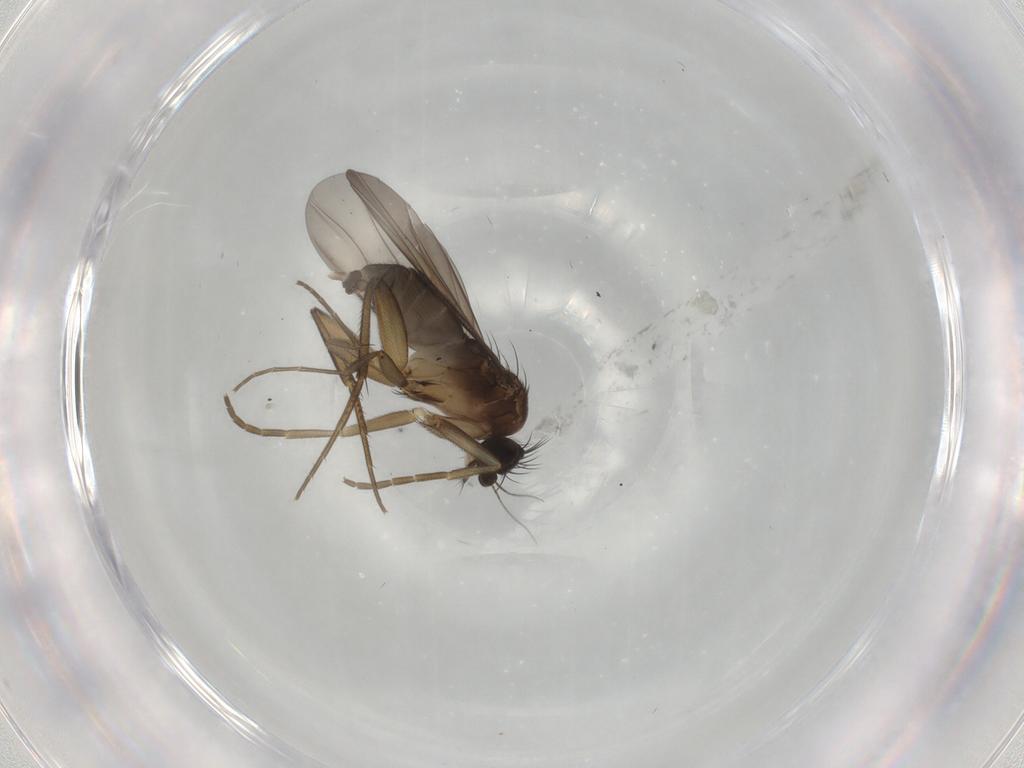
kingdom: Animalia
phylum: Arthropoda
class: Insecta
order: Diptera
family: Phoridae
